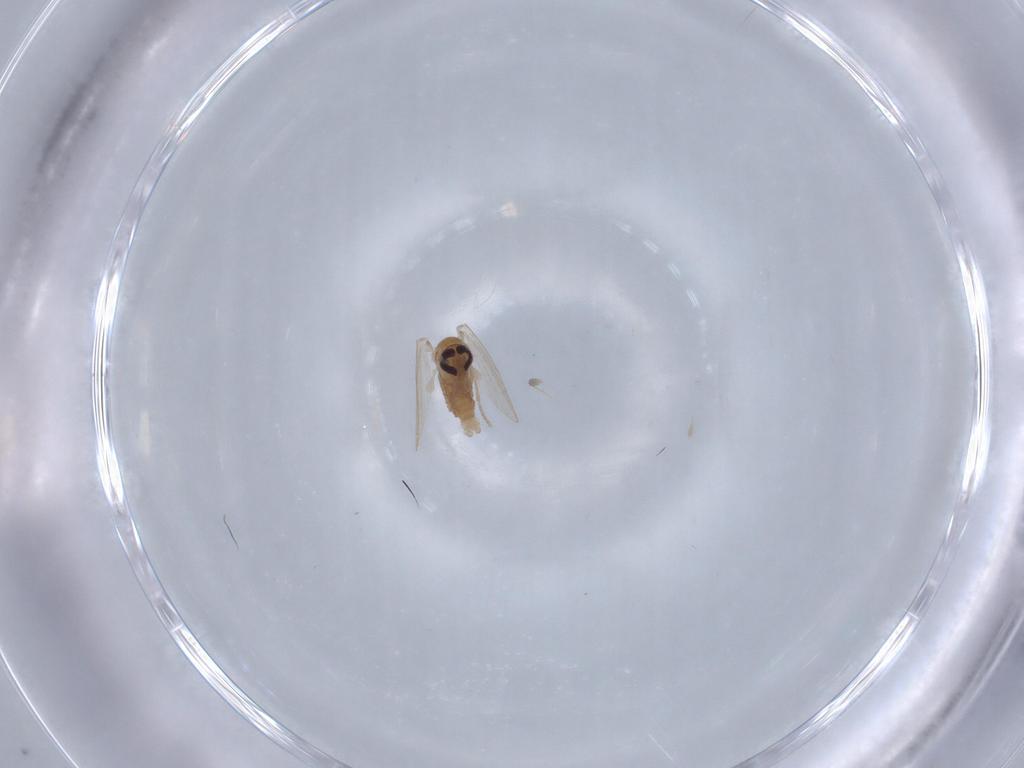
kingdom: Animalia
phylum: Arthropoda
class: Insecta
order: Diptera
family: Psychodidae
